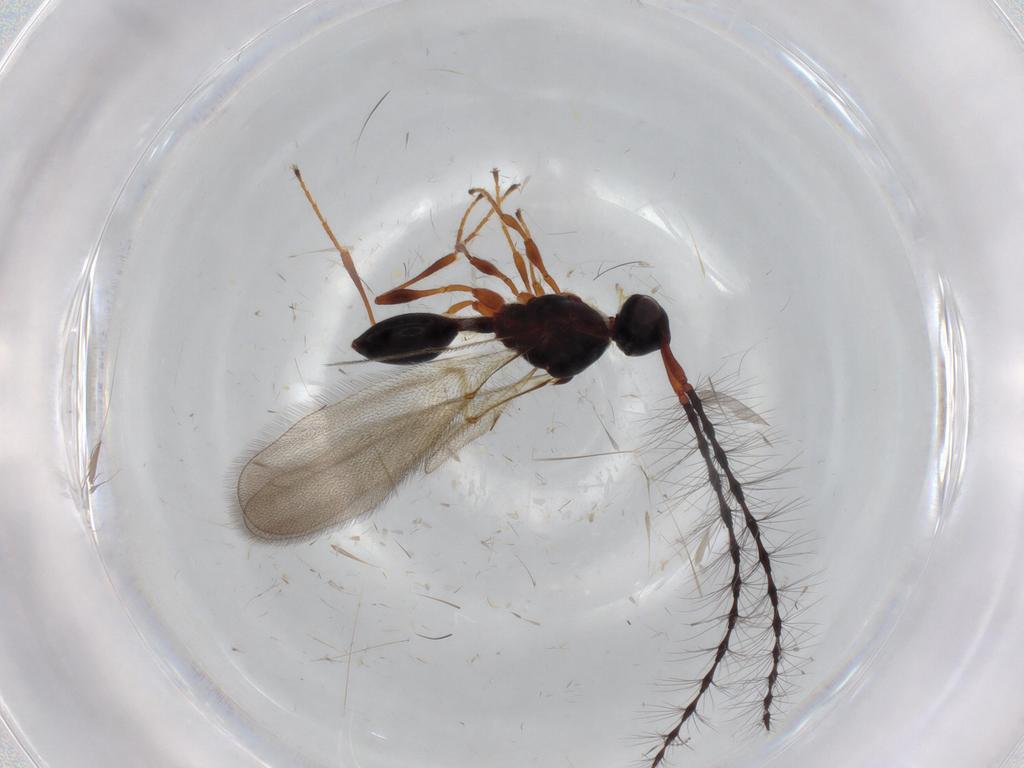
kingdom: Animalia
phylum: Arthropoda
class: Insecta
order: Hymenoptera
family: Diapriidae
